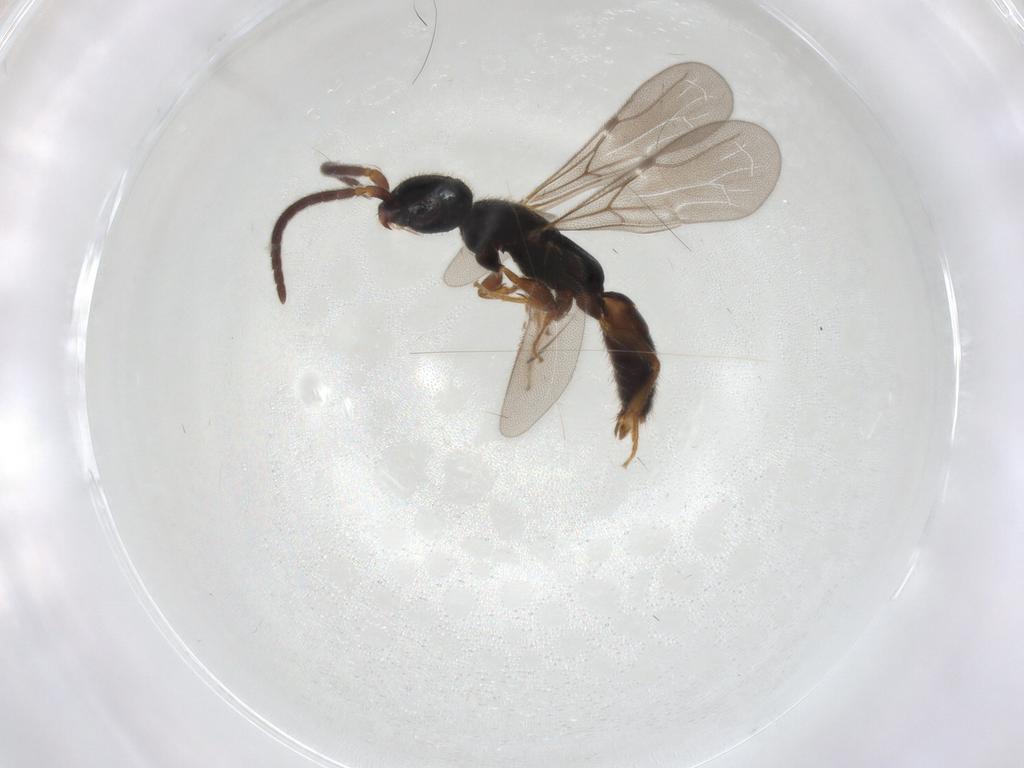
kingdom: Animalia
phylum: Arthropoda
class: Insecta
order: Hymenoptera
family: Bethylidae
